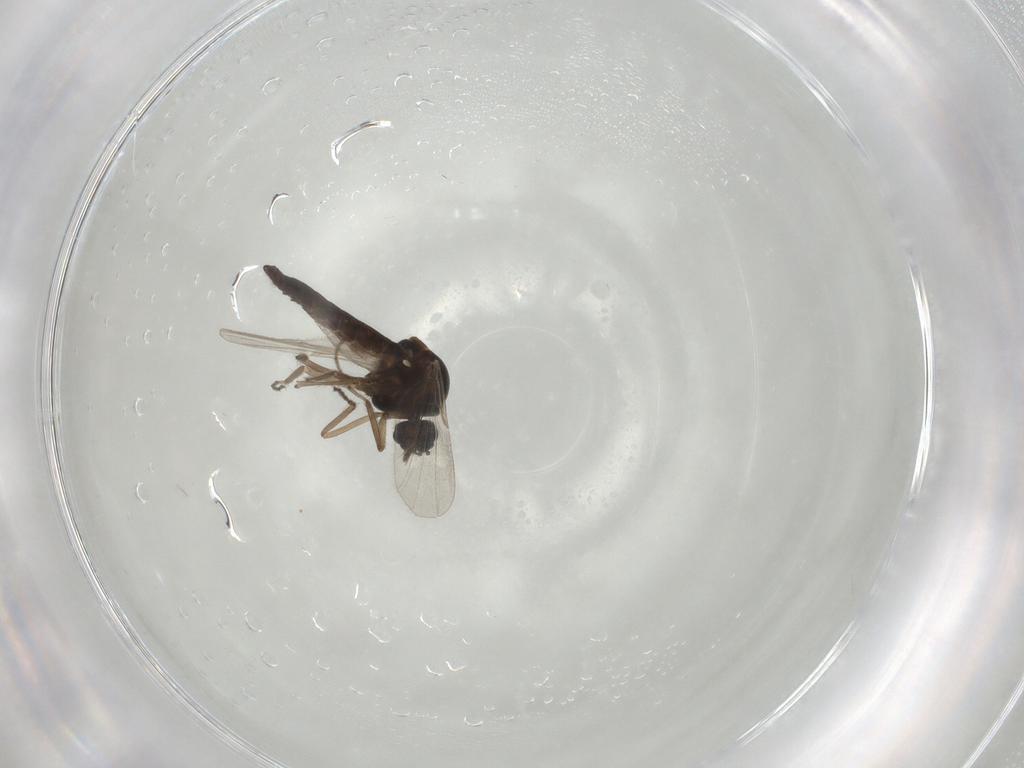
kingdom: Animalia
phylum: Arthropoda
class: Insecta
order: Diptera
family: Ceratopogonidae
